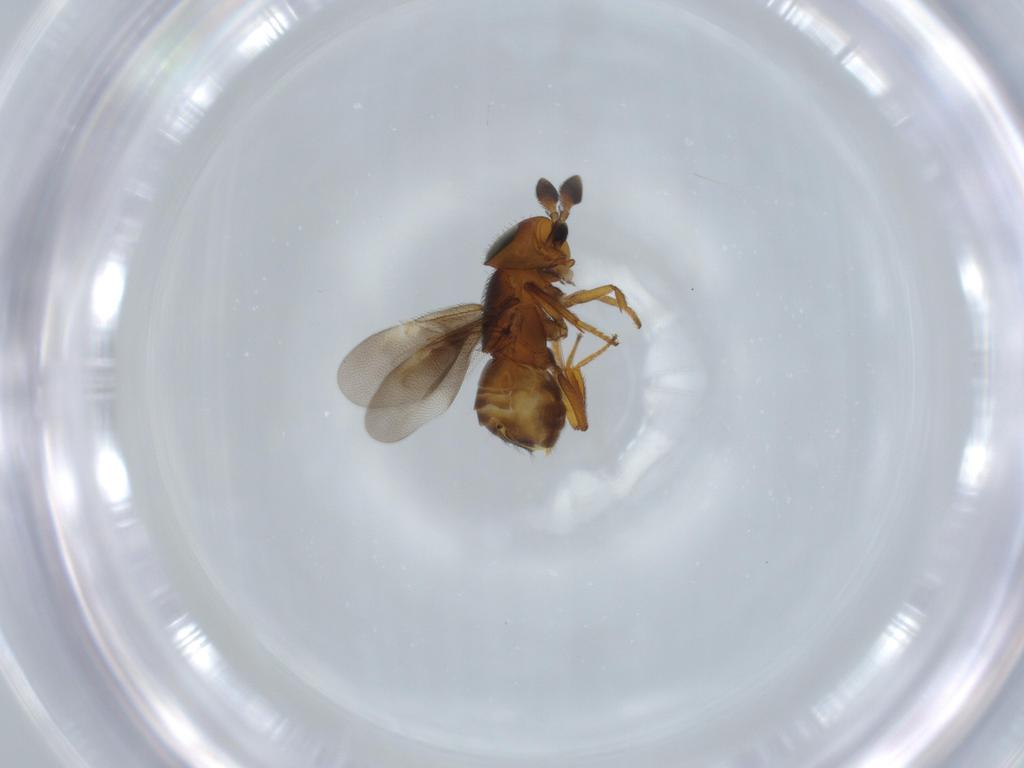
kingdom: Animalia
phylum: Arthropoda
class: Insecta
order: Hymenoptera
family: Encyrtidae
